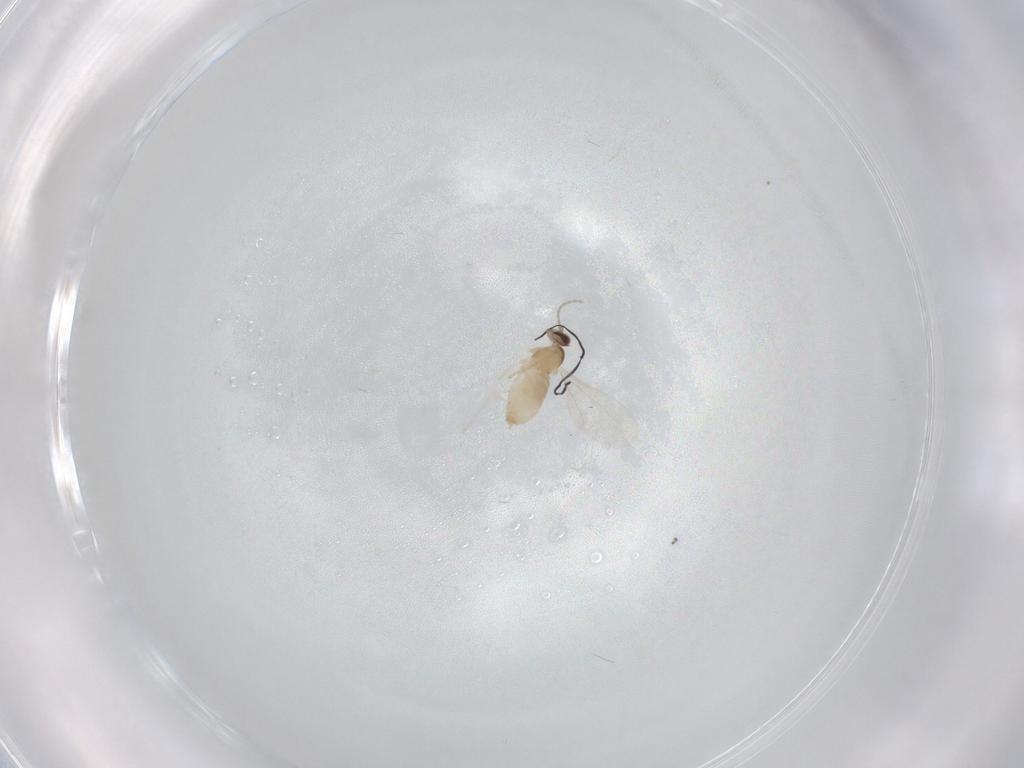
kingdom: Animalia
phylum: Arthropoda
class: Insecta
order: Diptera
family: Cecidomyiidae
